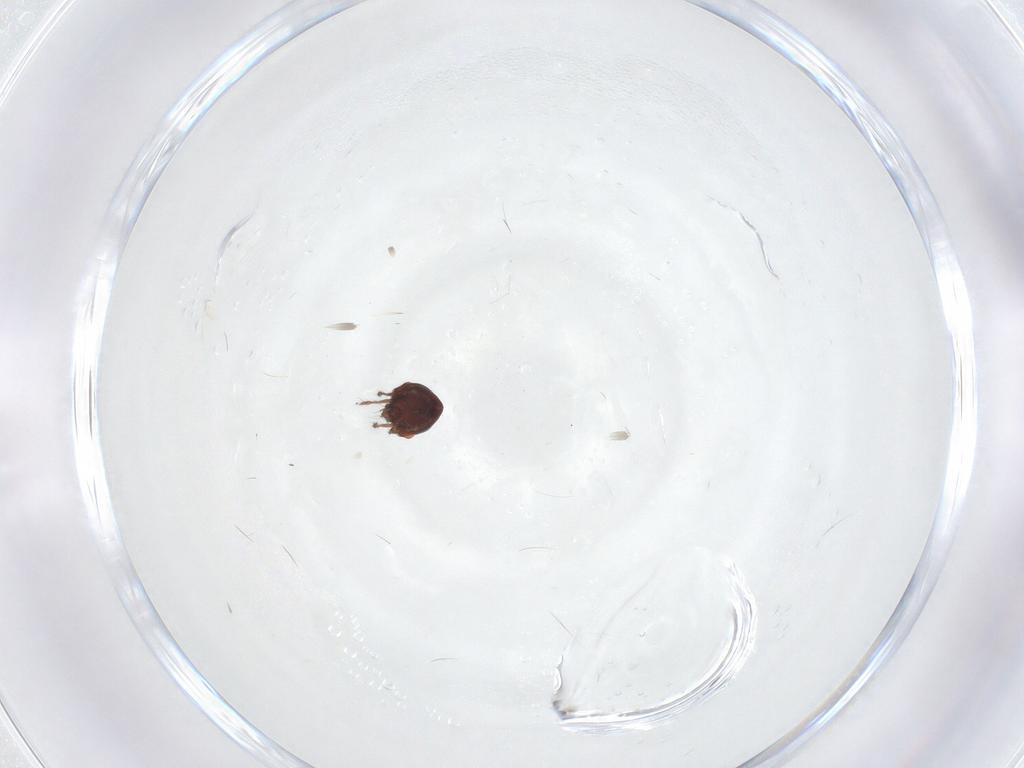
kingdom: Animalia
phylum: Arthropoda
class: Arachnida
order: Sarcoptiformes
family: Ceratozetidae
